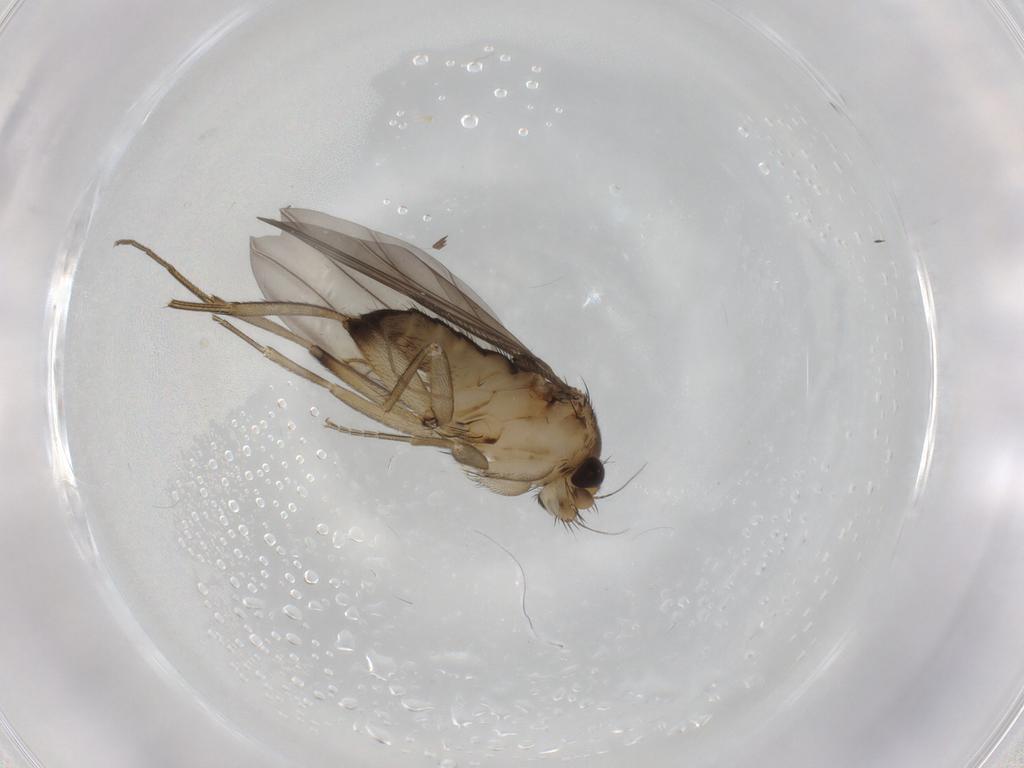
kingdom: Animalia
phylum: Arthropoda
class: Insecta
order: Diptera
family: Phoridae
